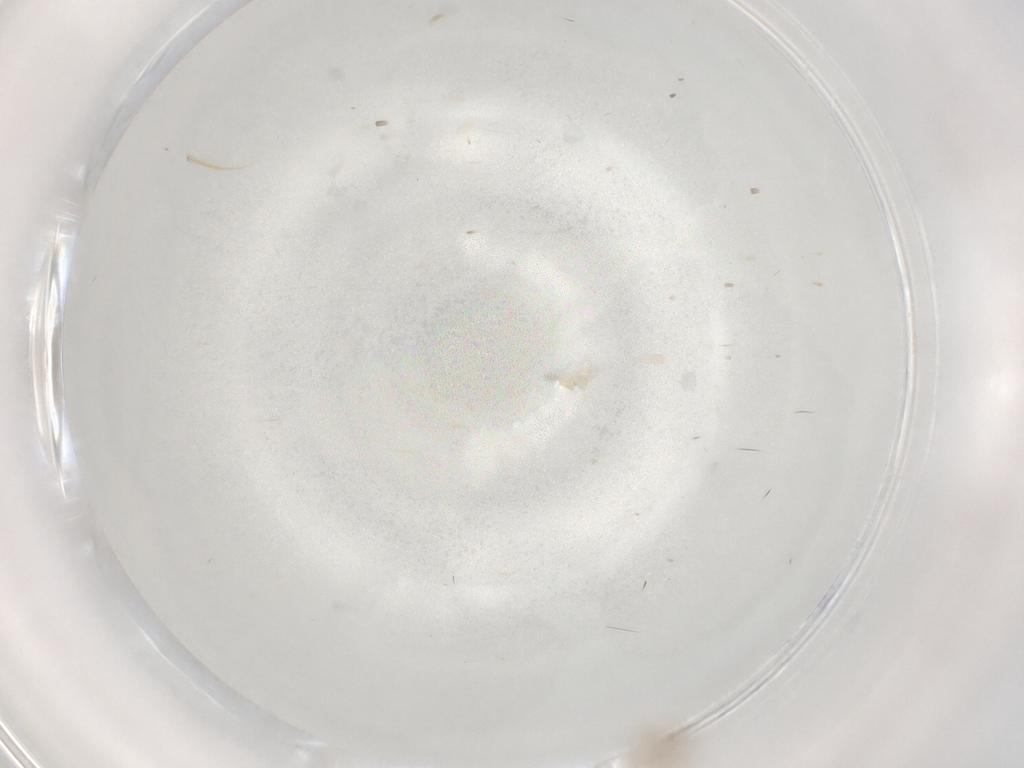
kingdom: Animalia
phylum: Arthropoda
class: Insecta
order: Diptera
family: Cecidomyiidae
